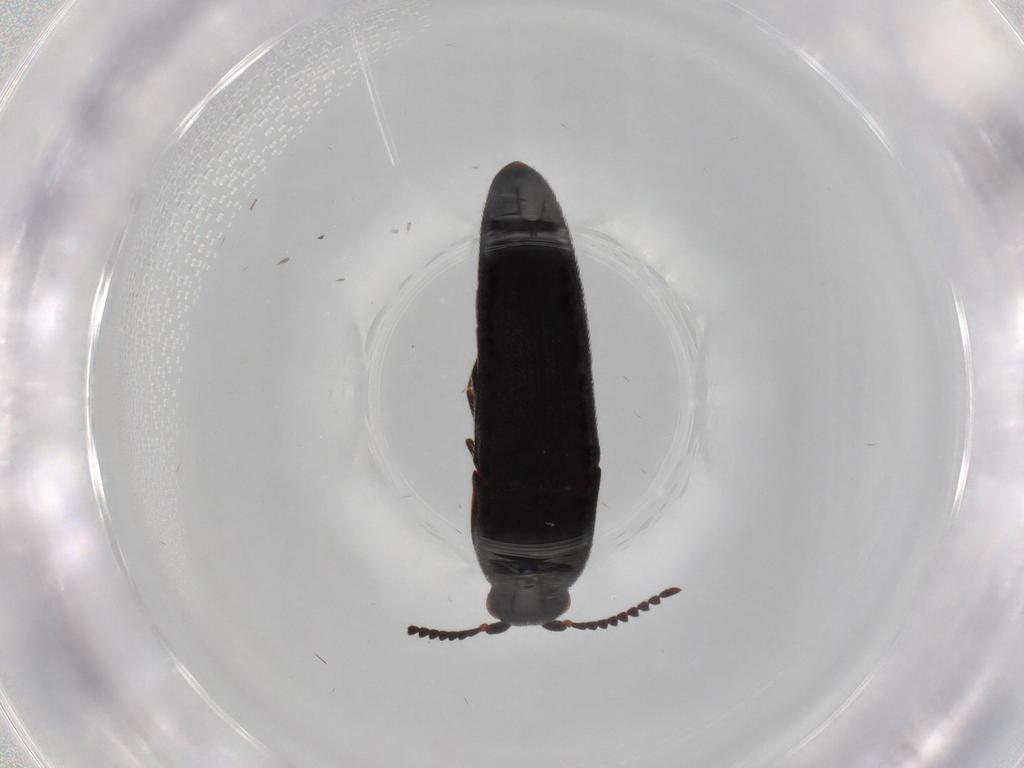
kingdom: Animalia
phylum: Arthropoda
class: Insecta
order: Coleoptera
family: Eucnemidae
